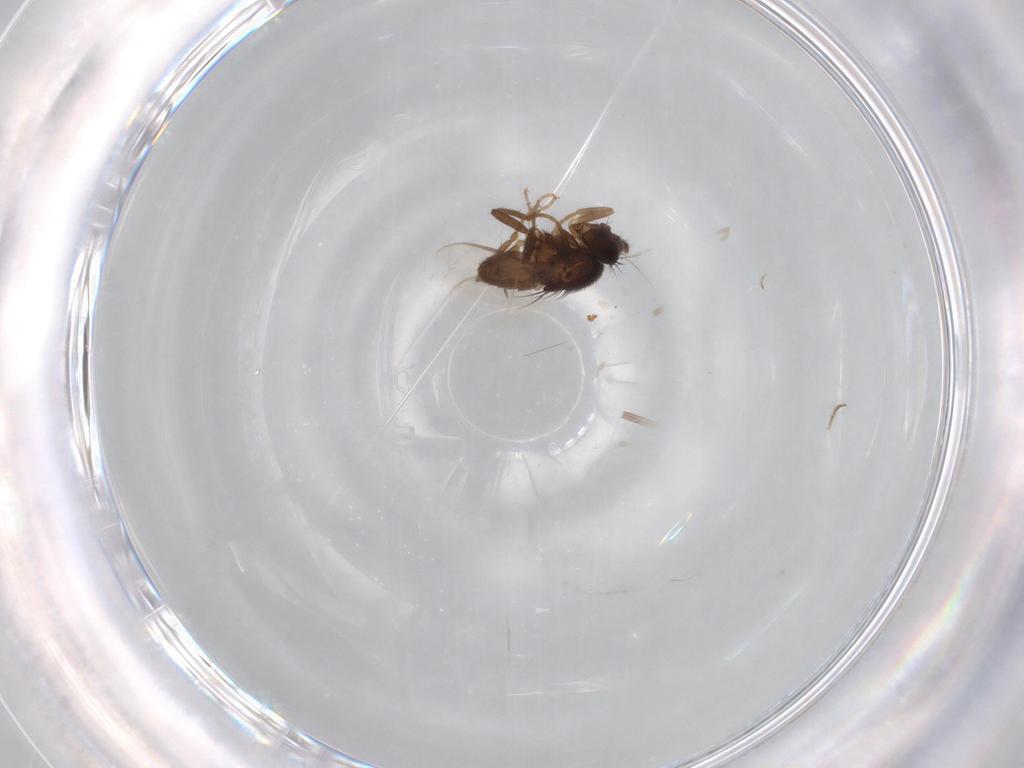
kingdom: Animalia
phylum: Arthropoda
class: Insecta
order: Diptera
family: Sphaeroceridae
